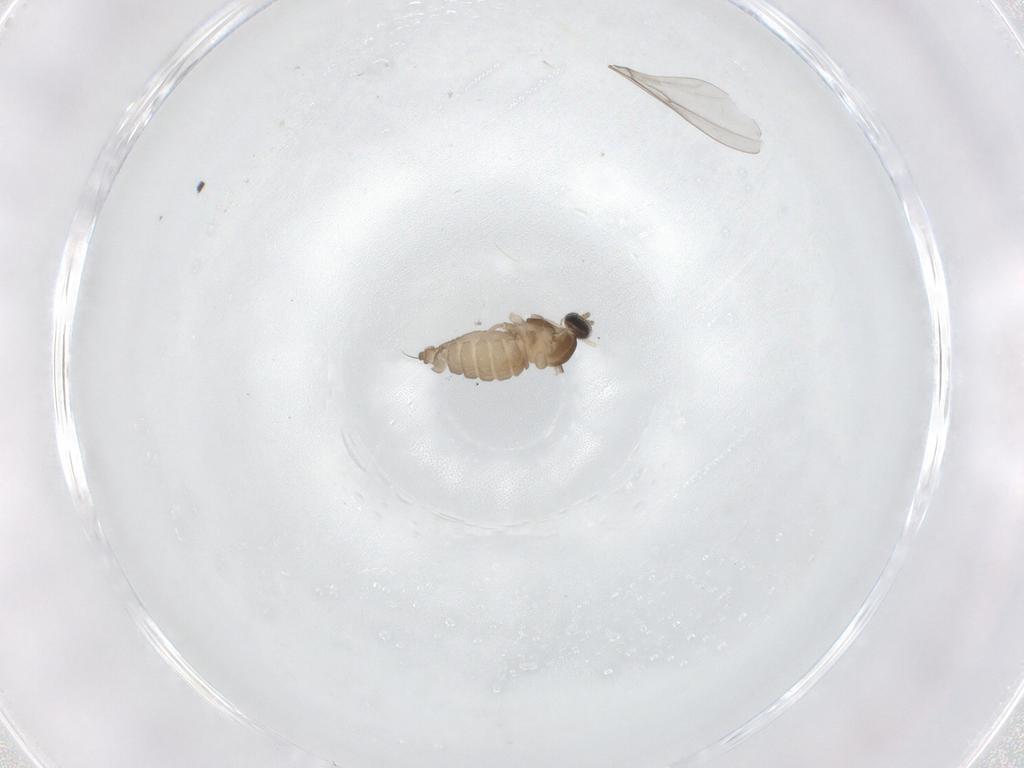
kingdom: Animalia
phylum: Arthropoda
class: Insecta
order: Diptera
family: Cecidomyiidae
